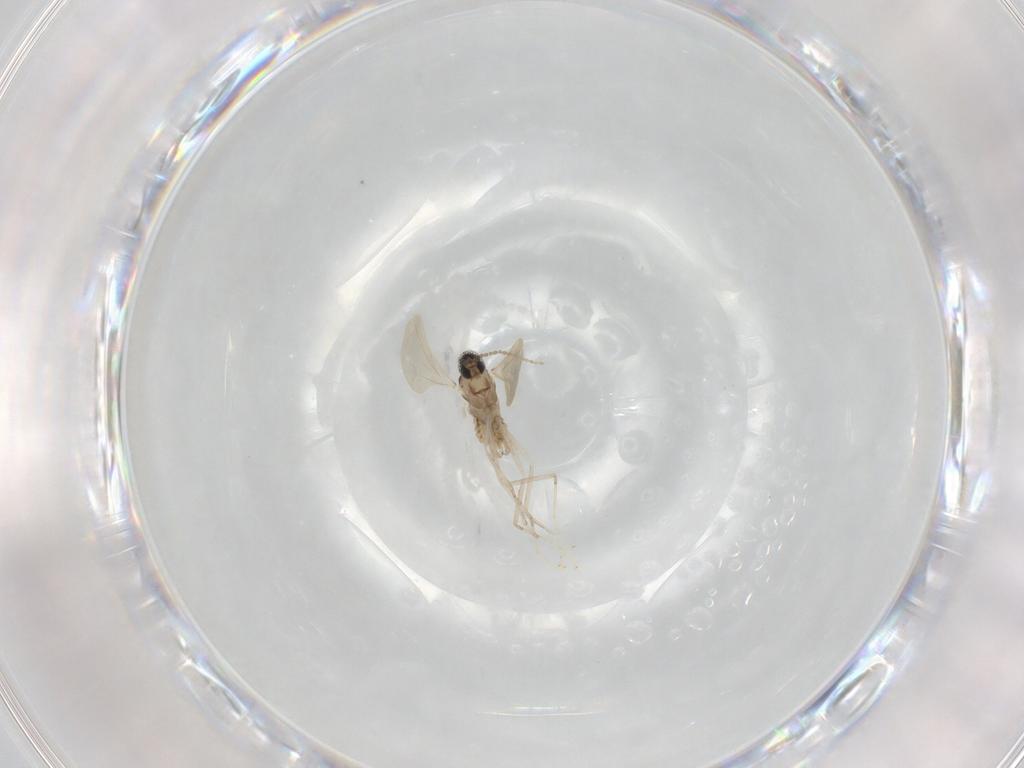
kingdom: Animalia
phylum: Arthropoda
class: Insecta
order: Diptera
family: Cecidomyiidae
